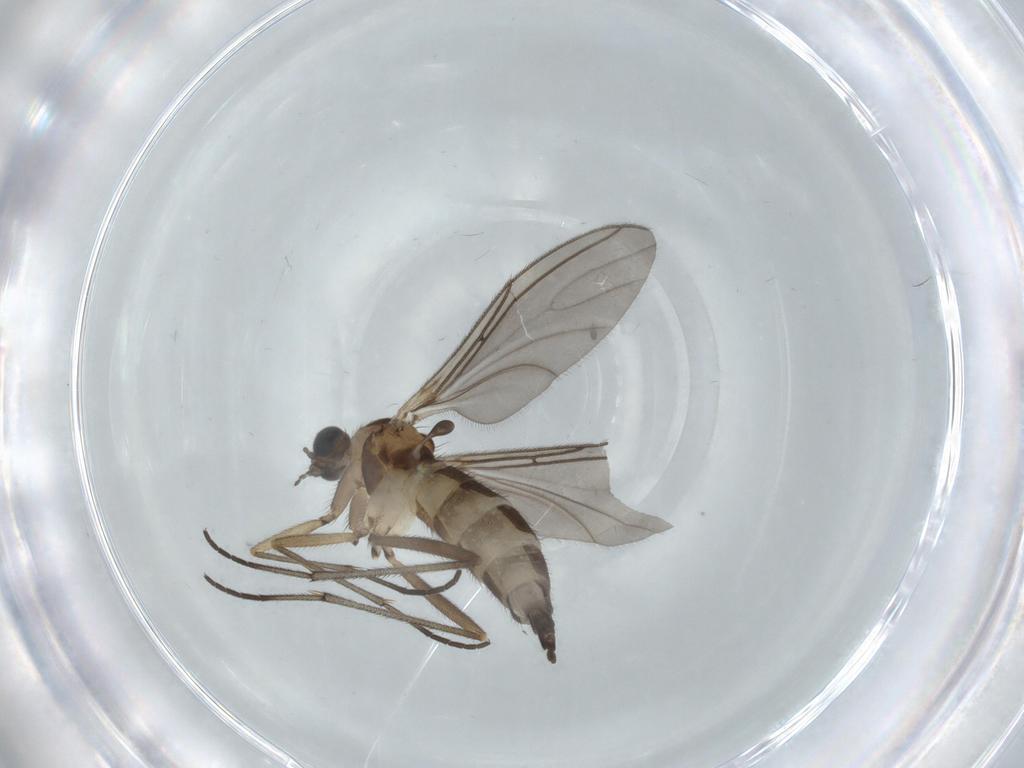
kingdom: Animalia
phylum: Arthropoda
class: Insecta
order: Diptera
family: Sciaridae
